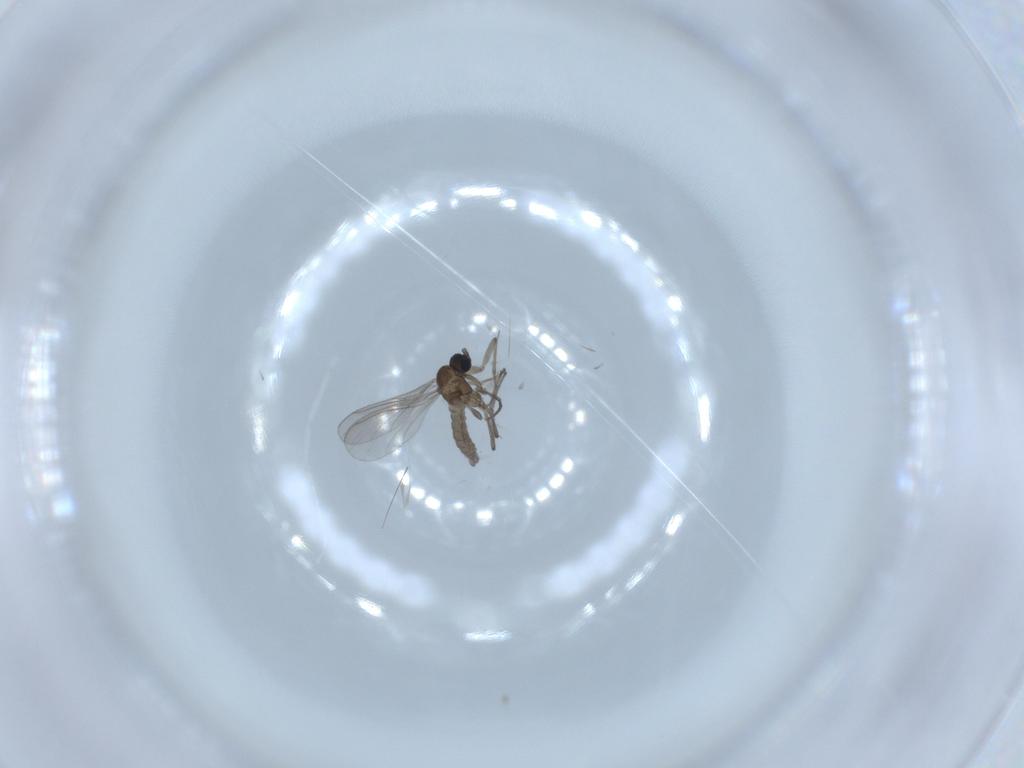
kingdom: Animalia
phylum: Arthropoda
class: Insecta
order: Diptera
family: Sciaridae
